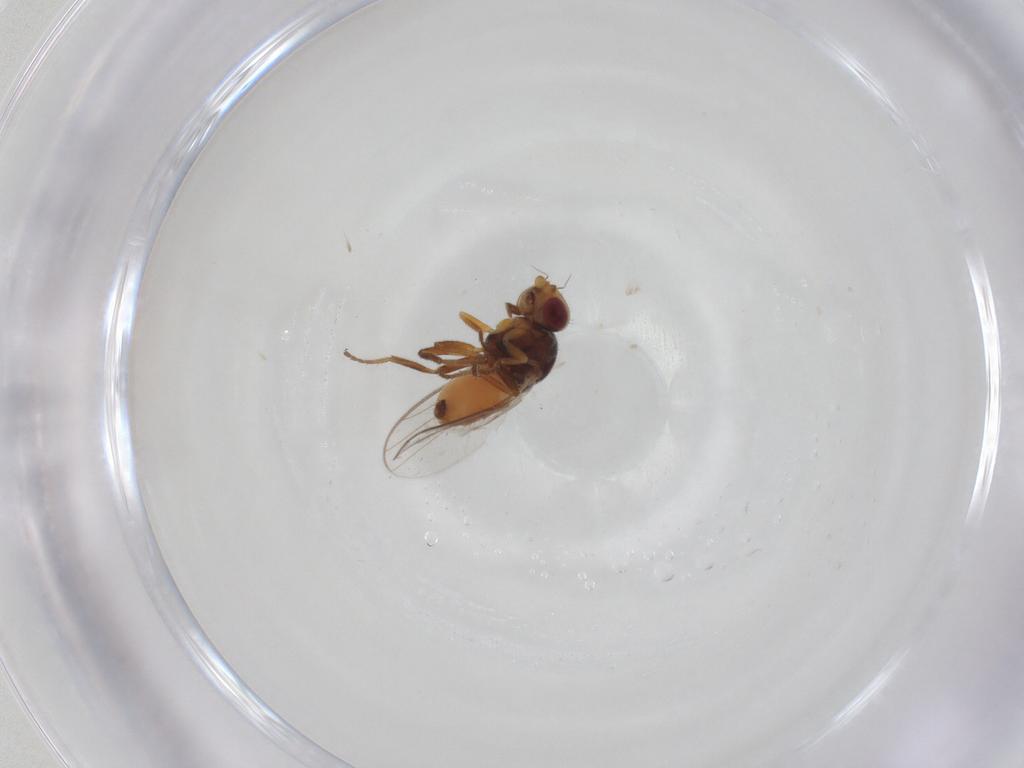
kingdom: Animalia
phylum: Arthropoda
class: Insecta
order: Diptera
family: Chloropidae
